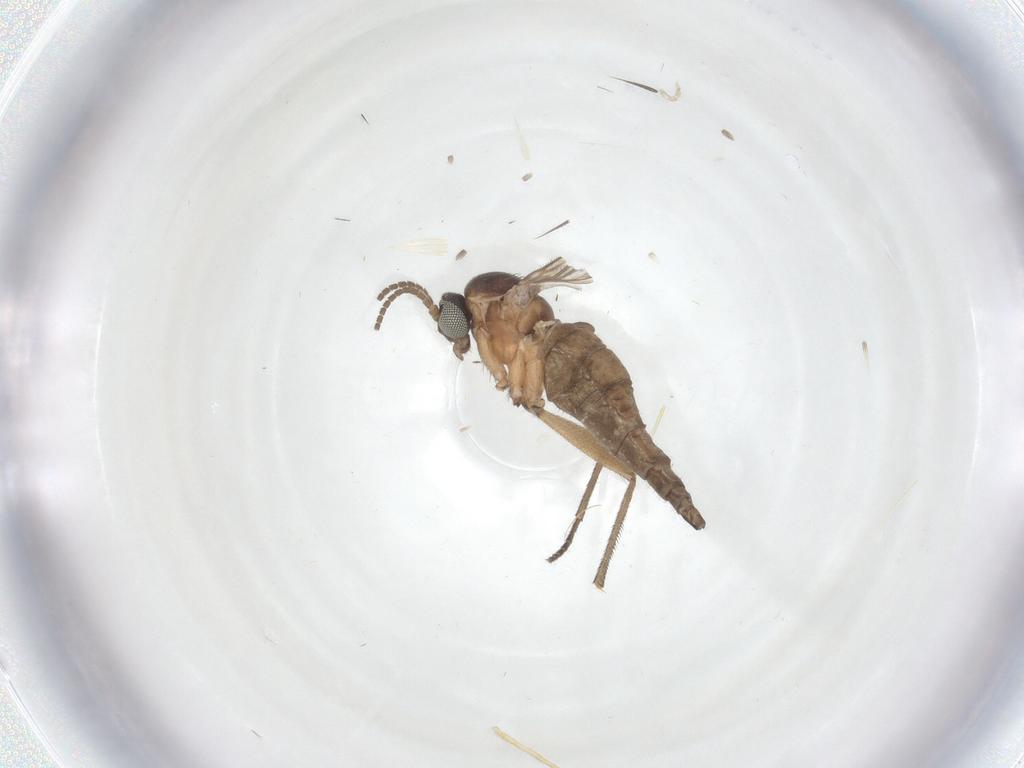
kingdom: Animalia
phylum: Arthropoda
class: Insecta
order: Diptera
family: Sciaridae
